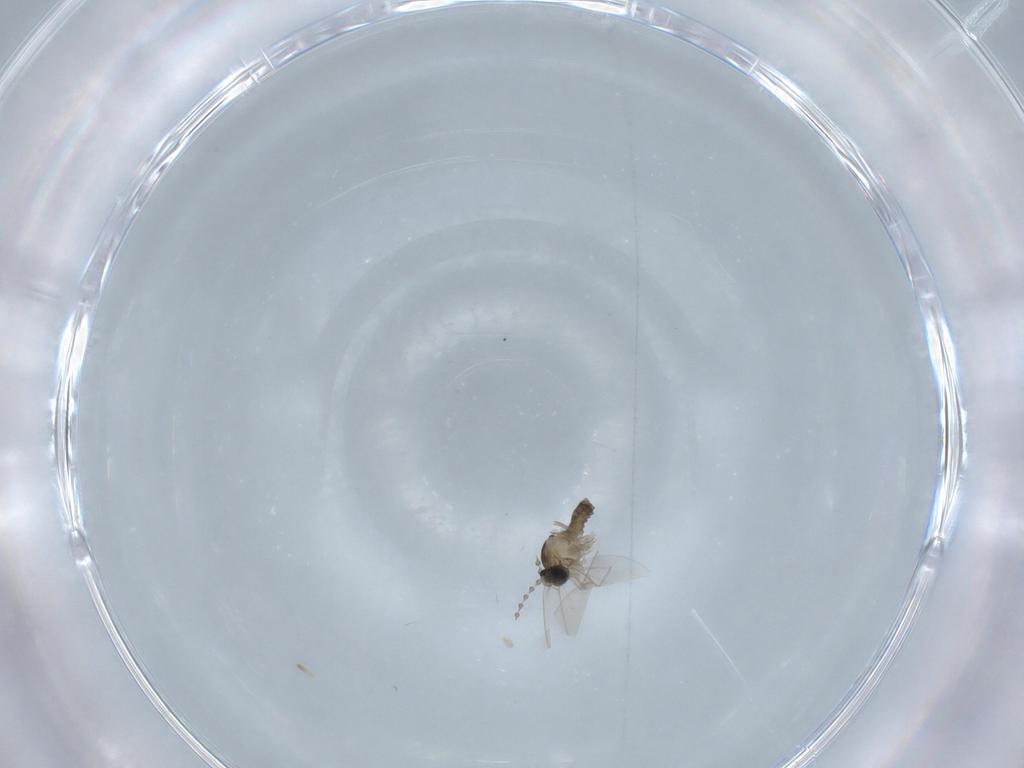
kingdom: Animalia
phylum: Arthropoda
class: Insecta
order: Diptera
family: Cecidomyiidae
